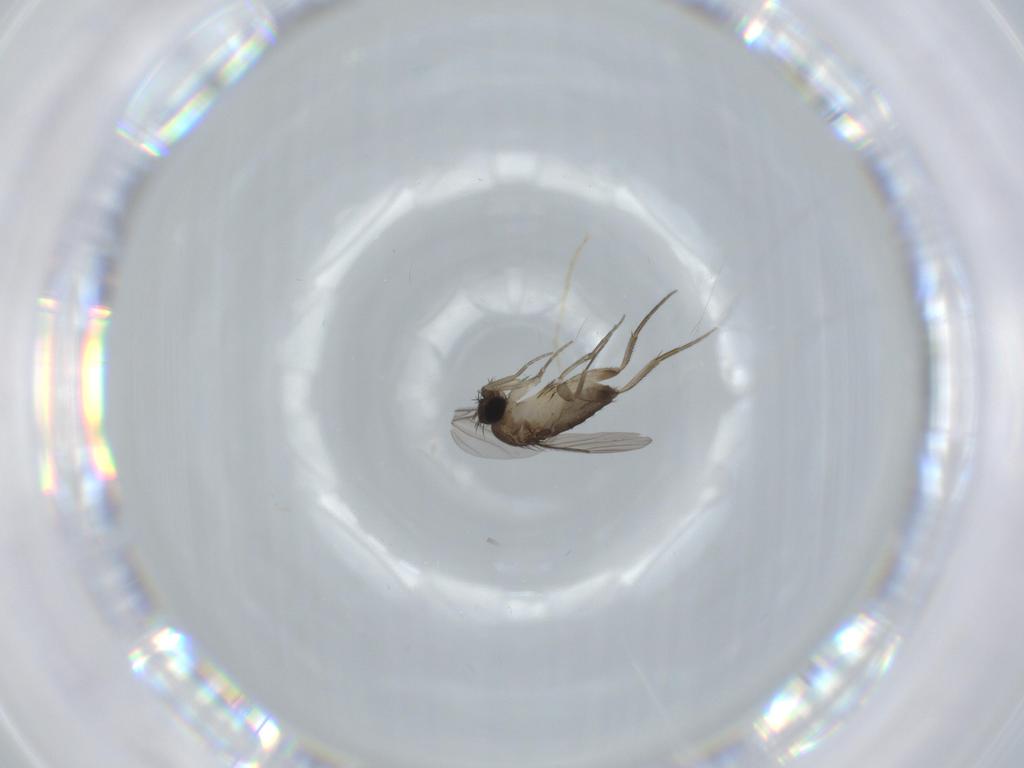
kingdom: Animalia
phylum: Arthropoda
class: Insecta
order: Diptera
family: Phoridae
